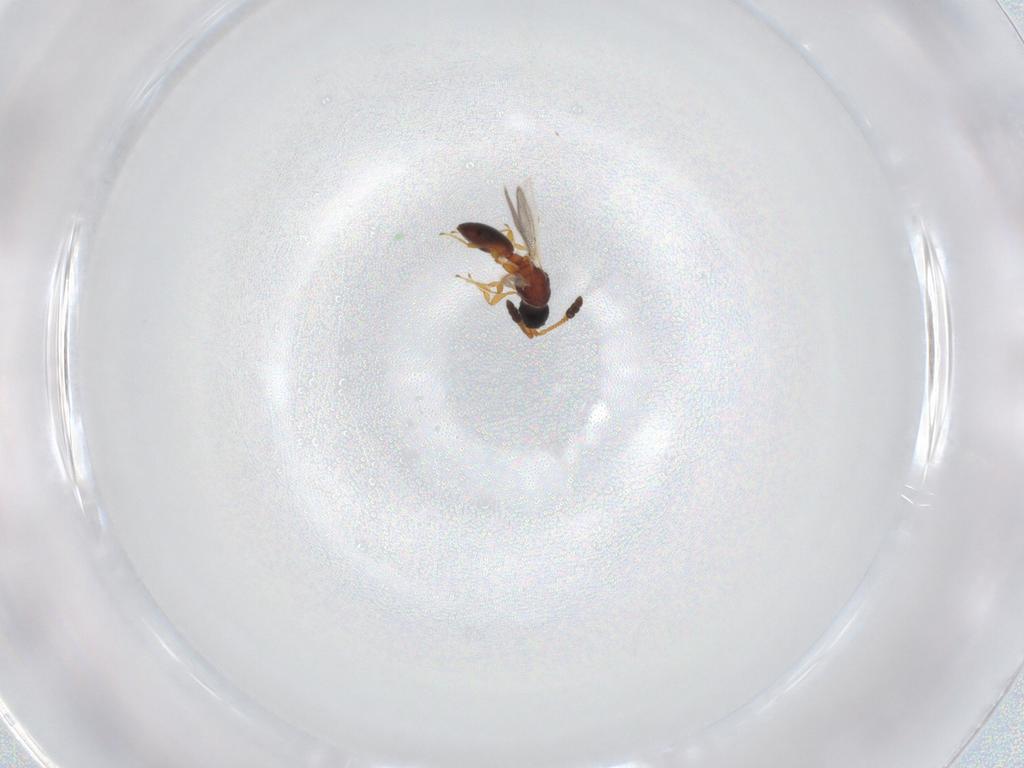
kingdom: Animalia
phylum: Arthropoda
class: Insecta
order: Hymenoptera
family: Diapriidae
